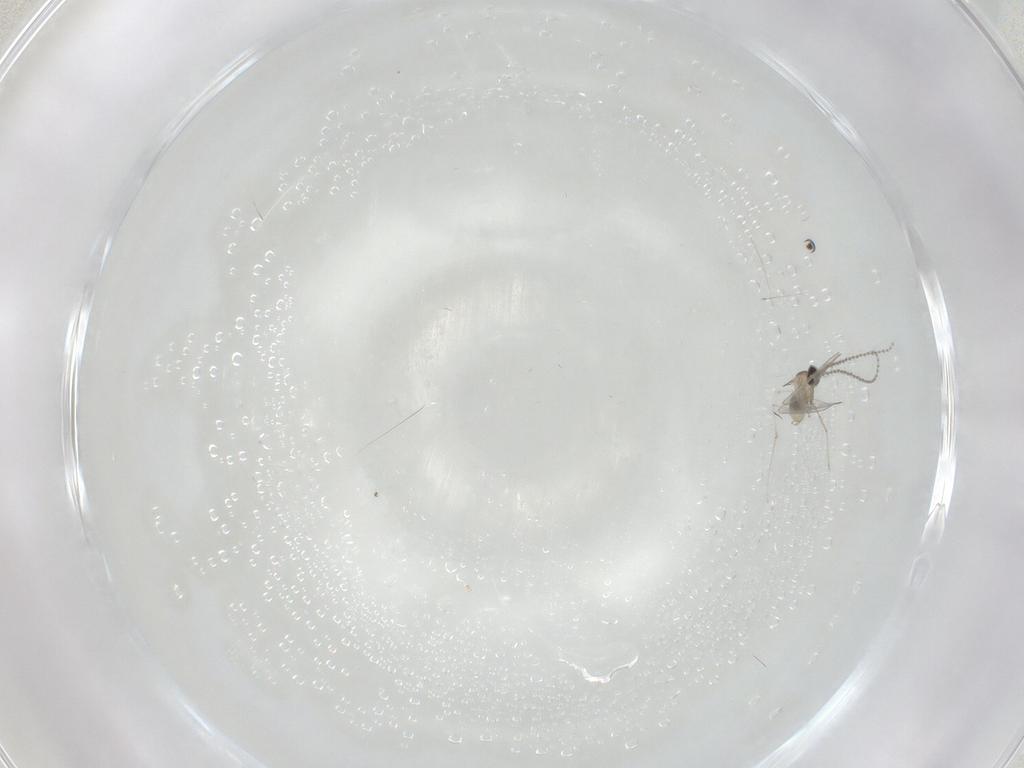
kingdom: Animalia
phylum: Arthropoda
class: Insecta
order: Diptera
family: Cecidomyiidae
